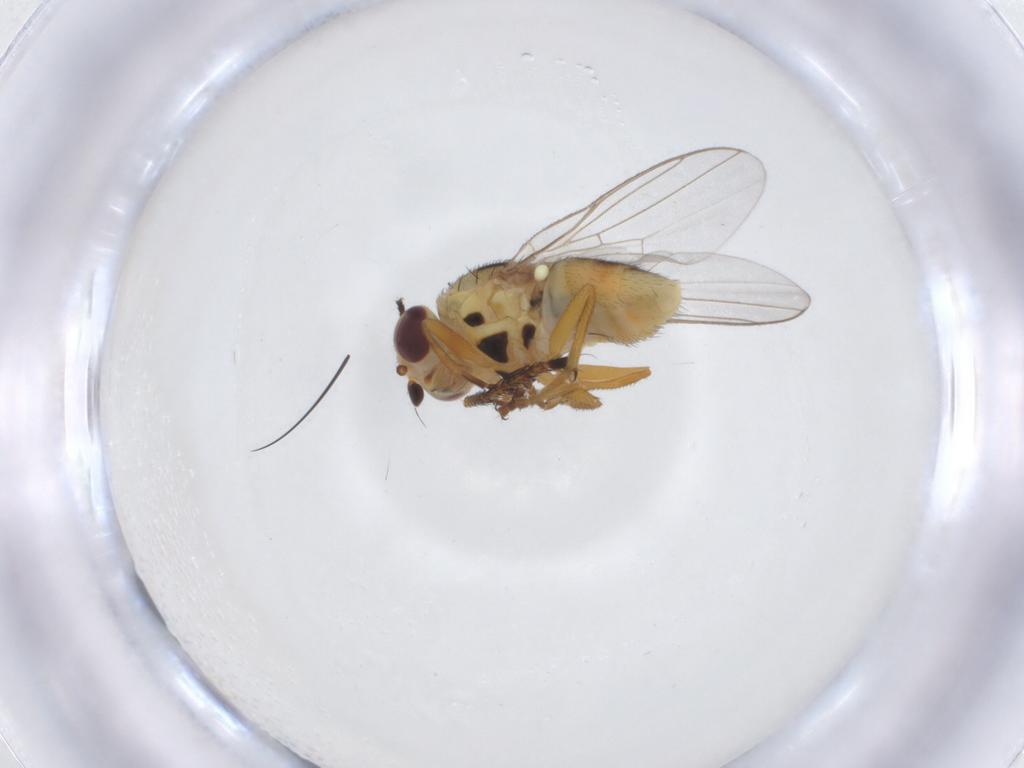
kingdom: Animalia
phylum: Arthropoda
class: Insecta
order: Diptera
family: Chloropidae
